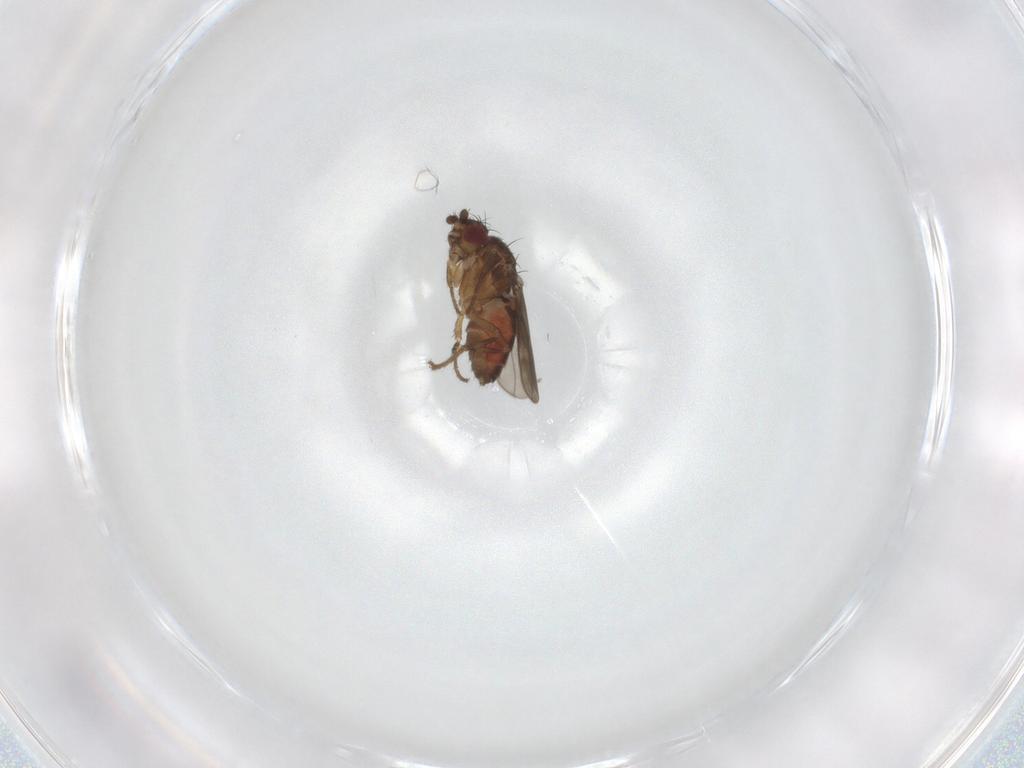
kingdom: Animalia
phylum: Arthropoda
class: Insecta
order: Diptera
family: Sphaeroceridae
